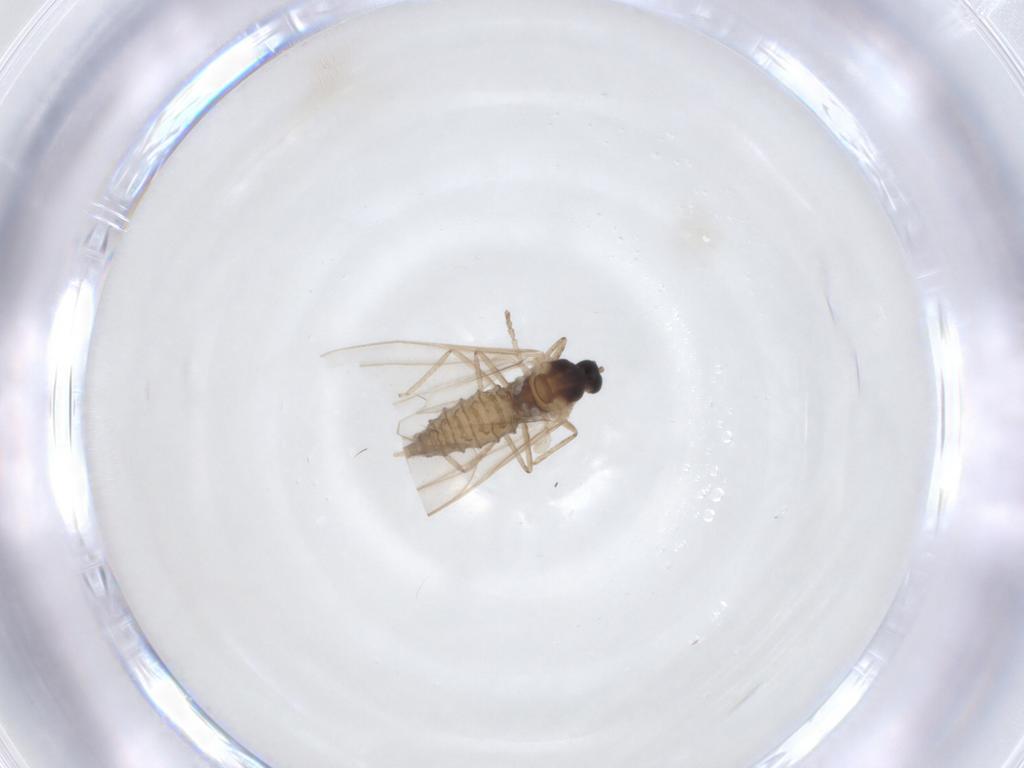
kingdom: Animalia
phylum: Arthropoda
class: Insecta
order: Diptera
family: Cecidomyiidae
